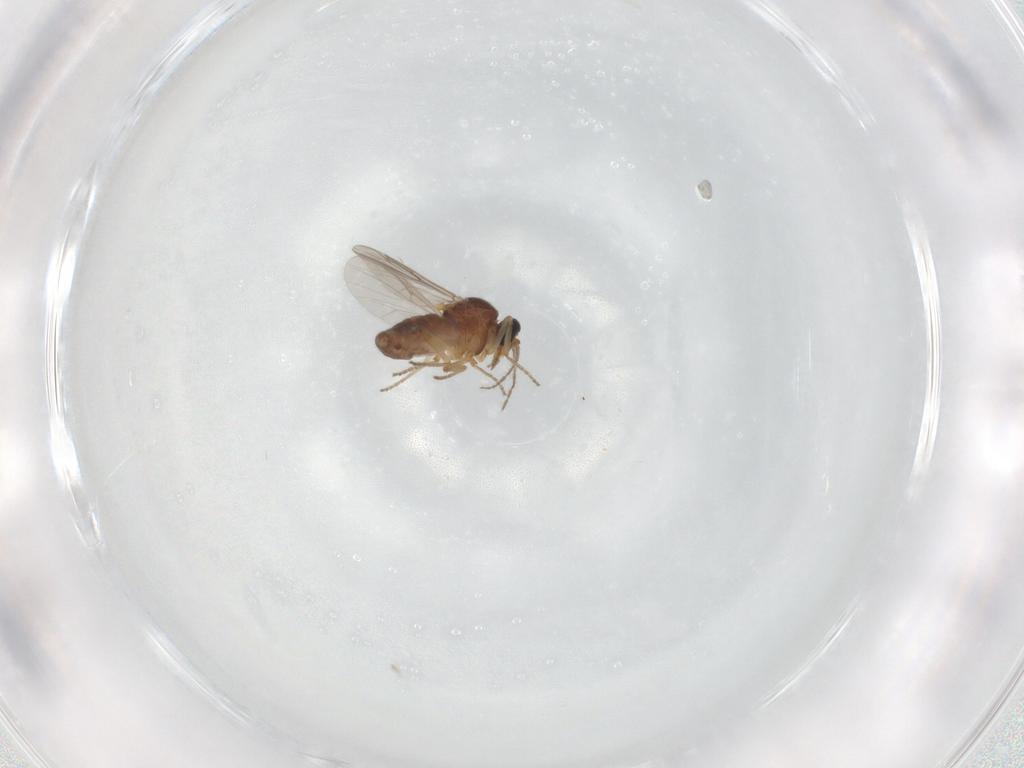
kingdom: Animalia
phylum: Arthropoda
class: Insecta
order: Diptera
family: Ceratopogonidae
